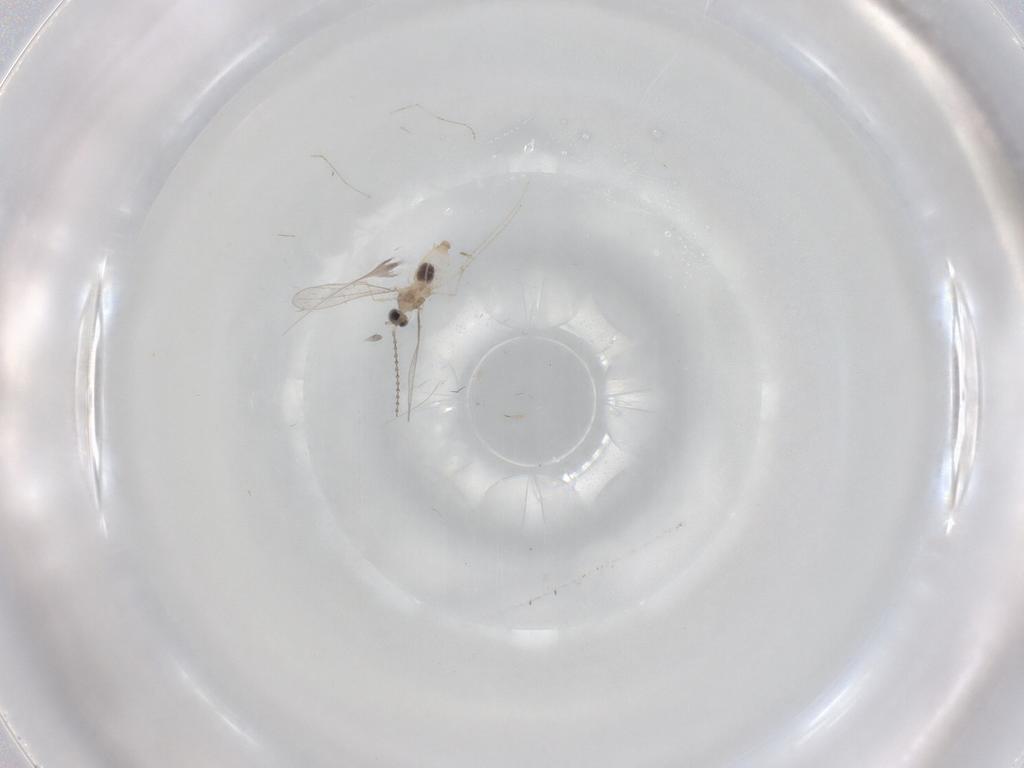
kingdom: Animalia
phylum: Arthropoda
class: Insecta
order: Diptera
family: Cecidomyiidae
